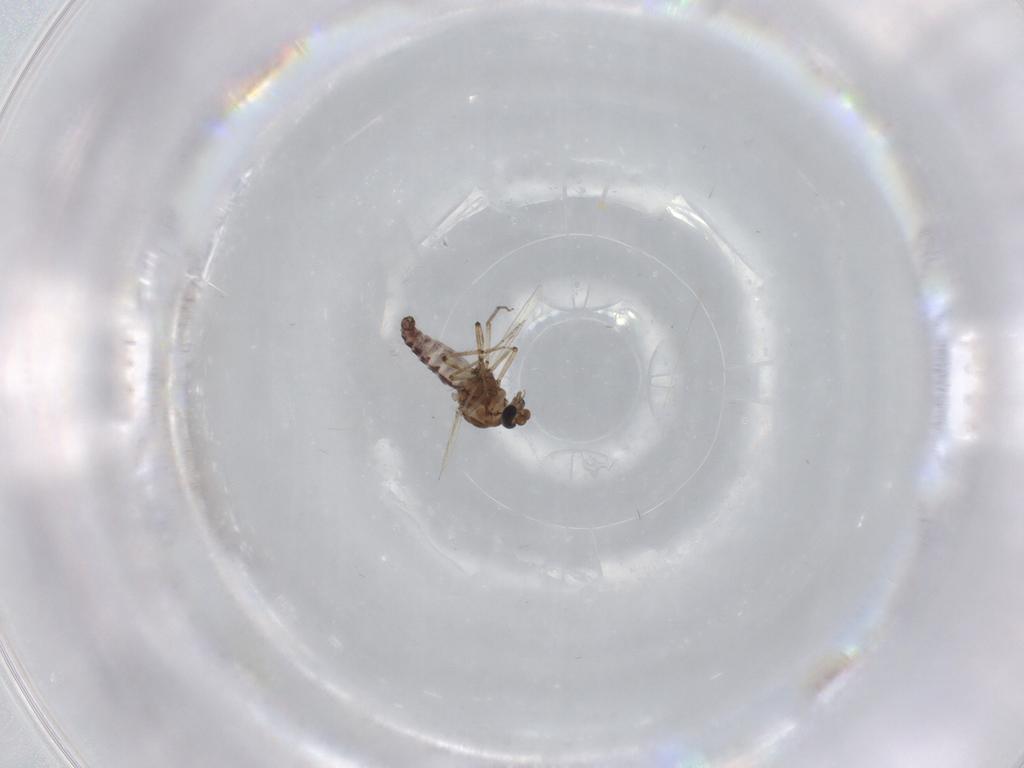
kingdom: Animalia
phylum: Arthropoda
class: Insecta
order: Diptera
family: Ceratopogonidae
